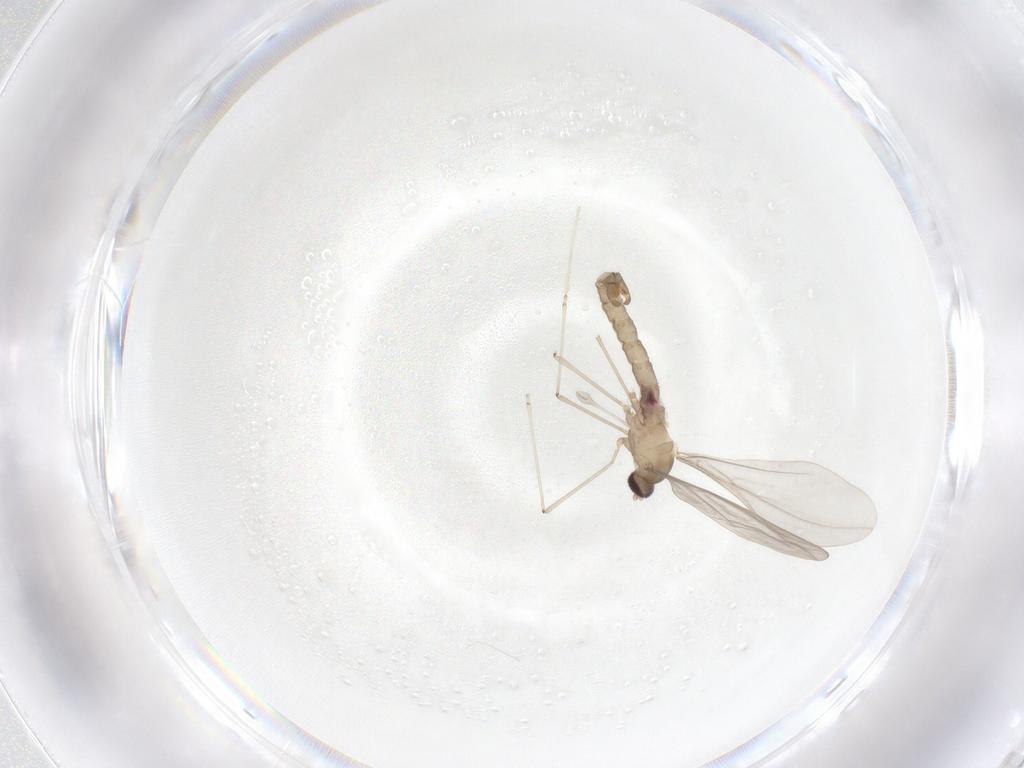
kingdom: Animalia
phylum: Arthropoda
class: Insecta
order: Diptera
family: Cecidomyiidae
